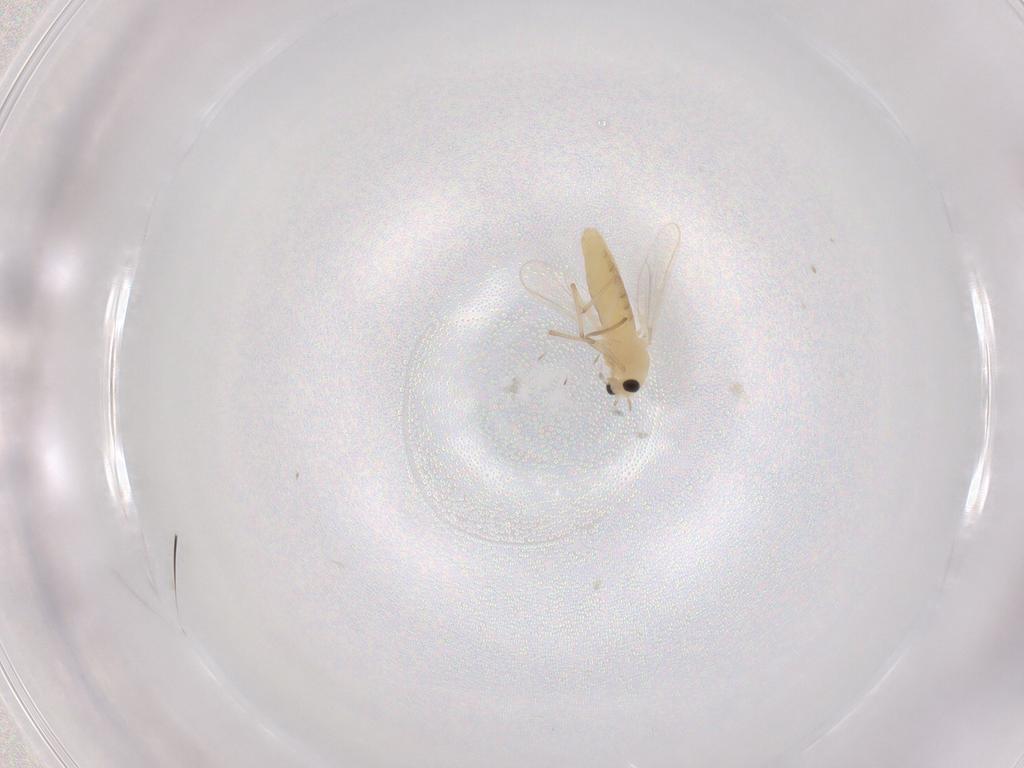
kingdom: Animalia
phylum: Arthropoda
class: Insecta
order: Diptera
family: Chironomidae
